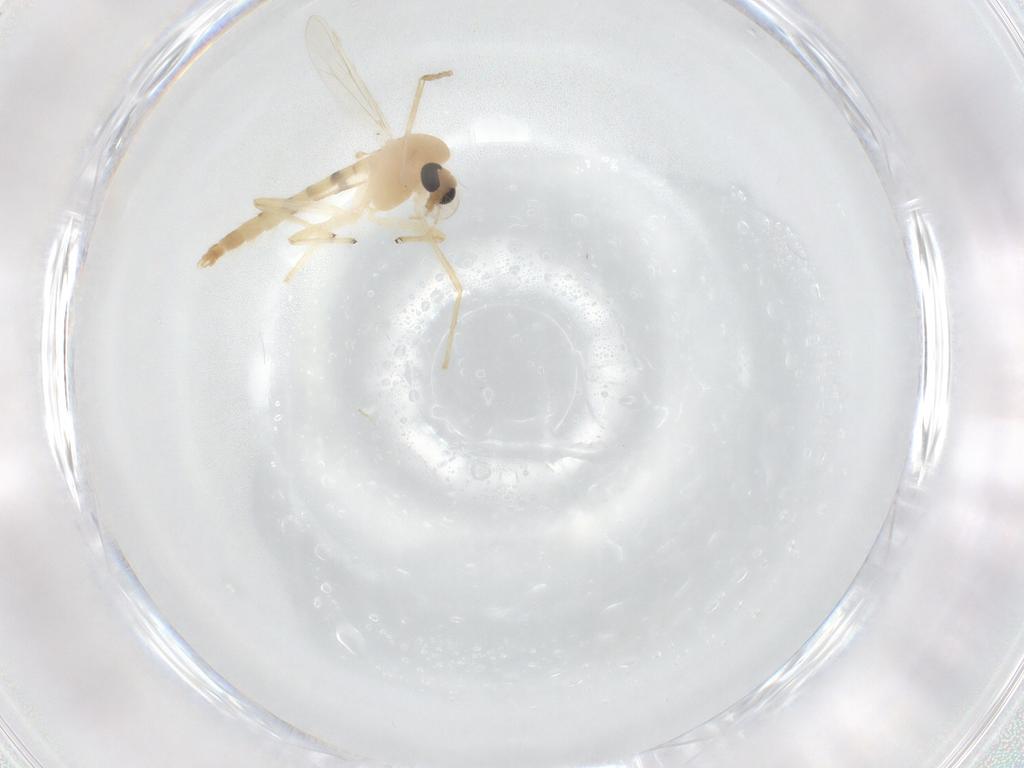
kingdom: Animalia
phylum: Arthropoda
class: Insecta
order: Diptera
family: Chironomidae
